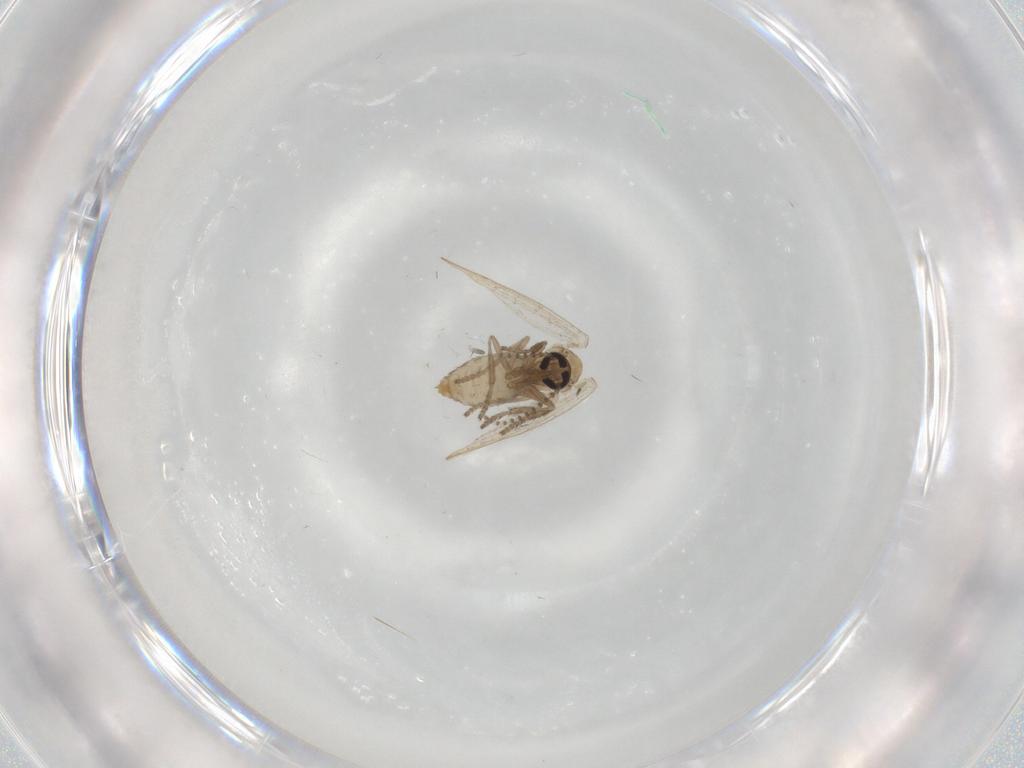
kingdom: Animalia
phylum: Arthropoda
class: Insecta
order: Diptera
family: Psychodidae
